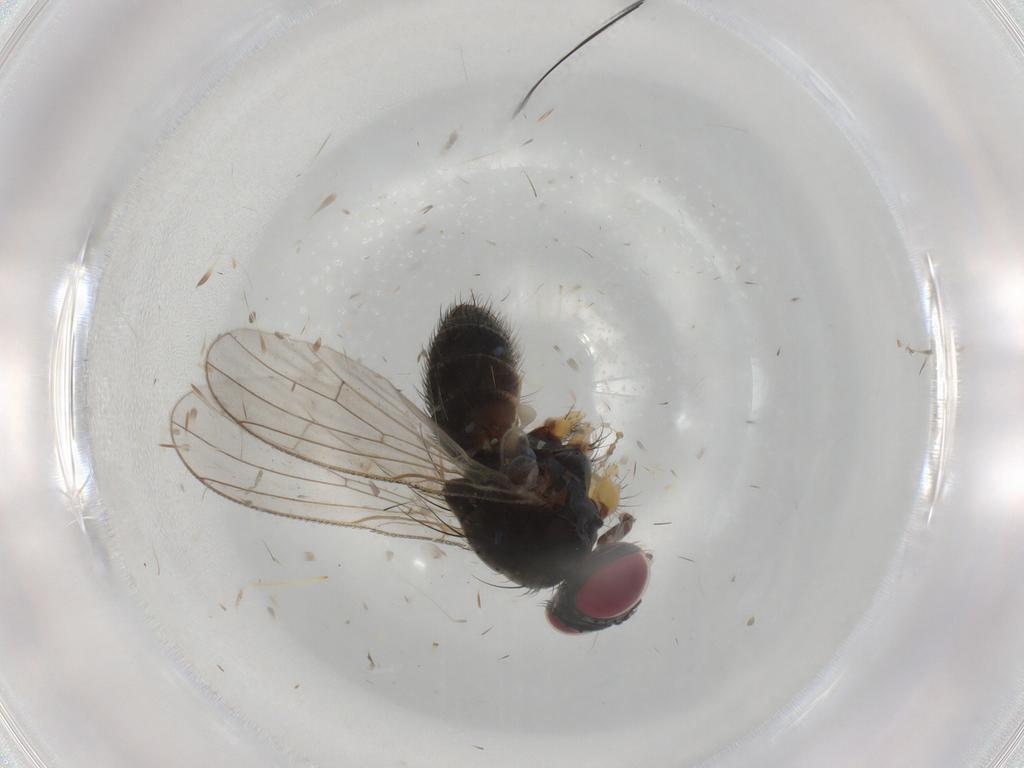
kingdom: Animalia
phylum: Arthropoda
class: Insecta
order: Diptera
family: Muscidae
